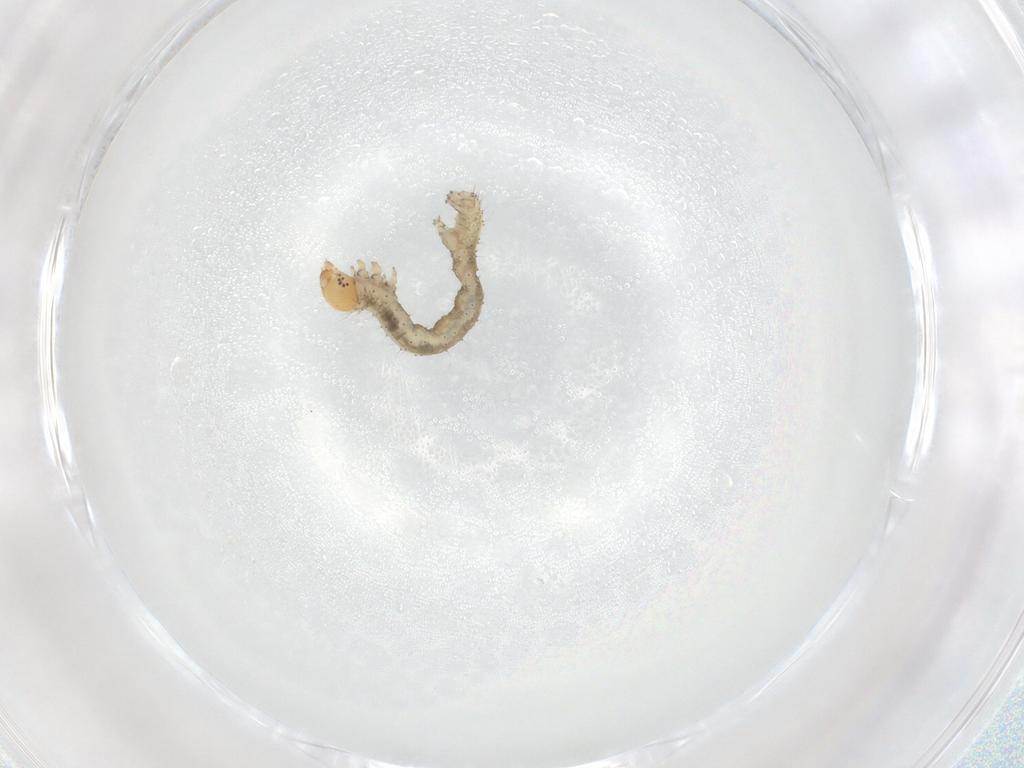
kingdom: Animalia
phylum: Arthropoda
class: Insecta
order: Lepidoptera
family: Geometridae
